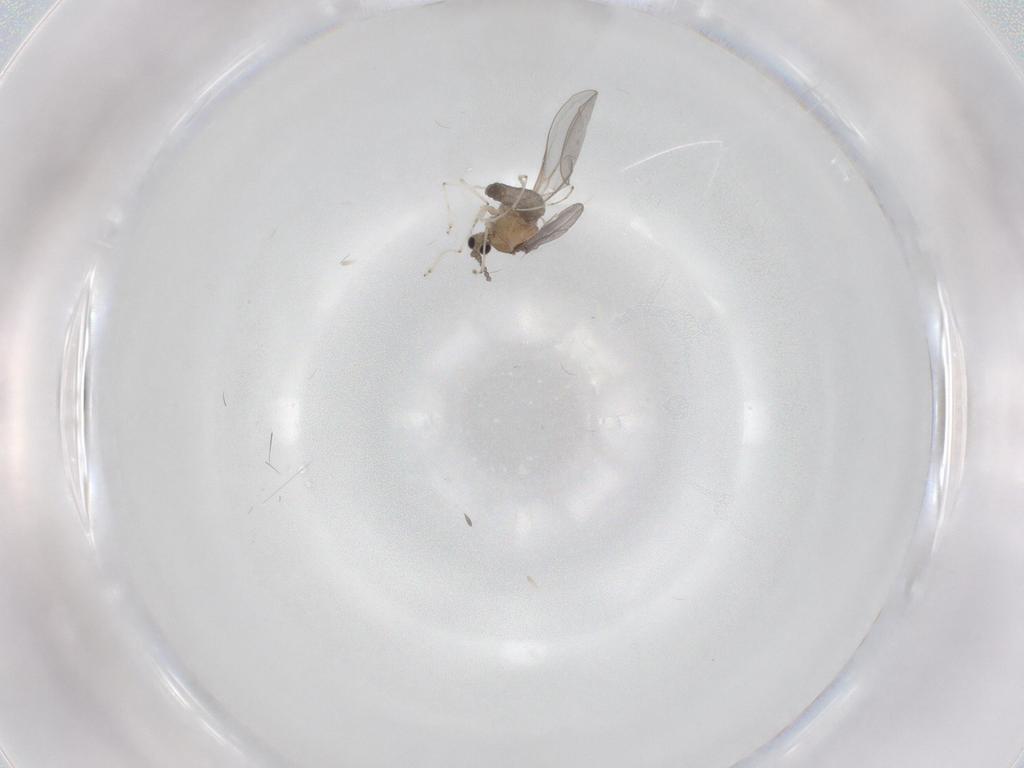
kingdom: Animalia
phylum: Arthropoda
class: Insecta
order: Diptera
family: Cecidomyiidae
